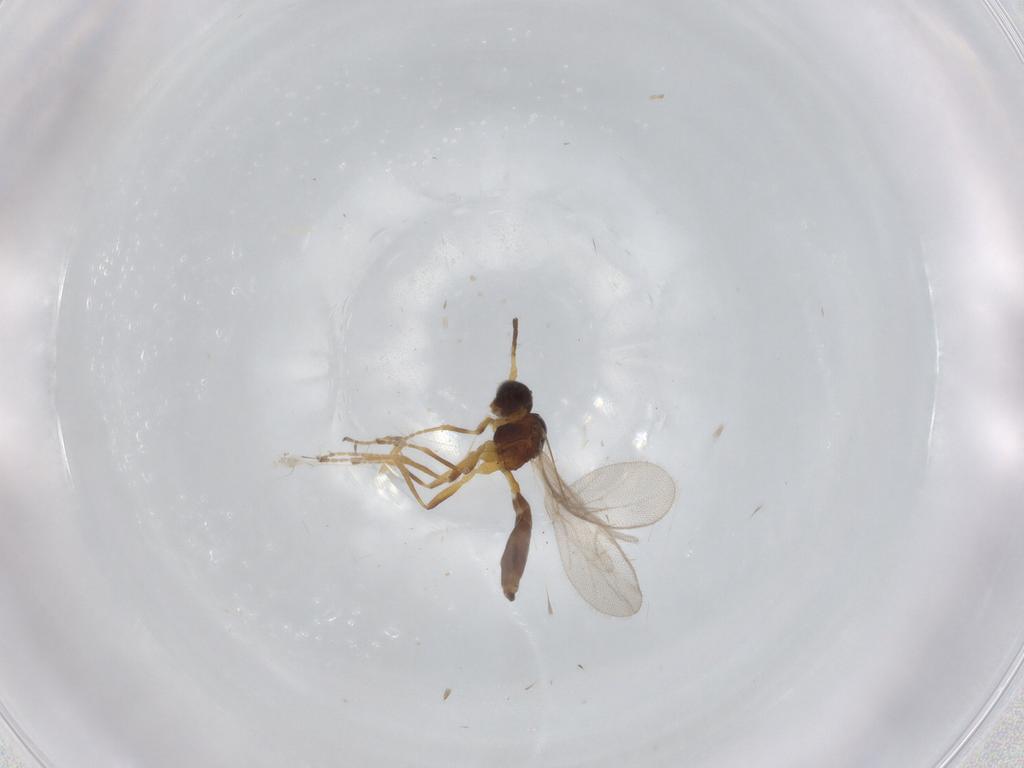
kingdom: Animalia
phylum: Arthropoda
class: Insecta
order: Hymenoptera
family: Braconidae
